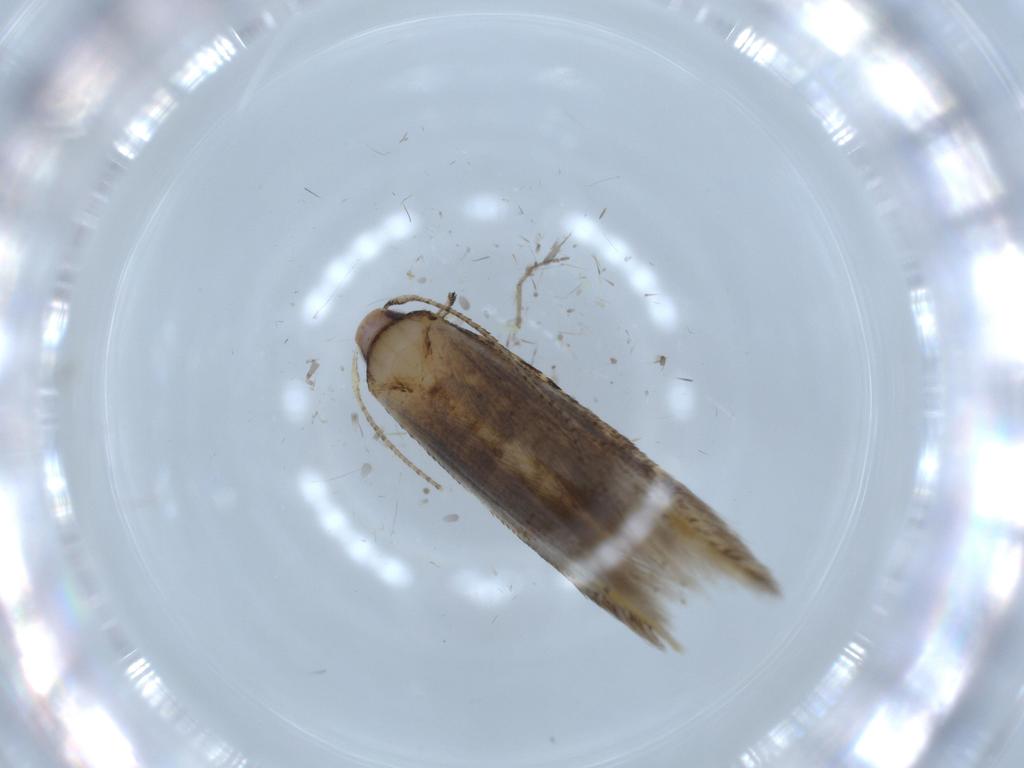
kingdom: Animalia
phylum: Arthropoda
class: Insecta
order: Lepidoptera
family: Stathmopodidae
